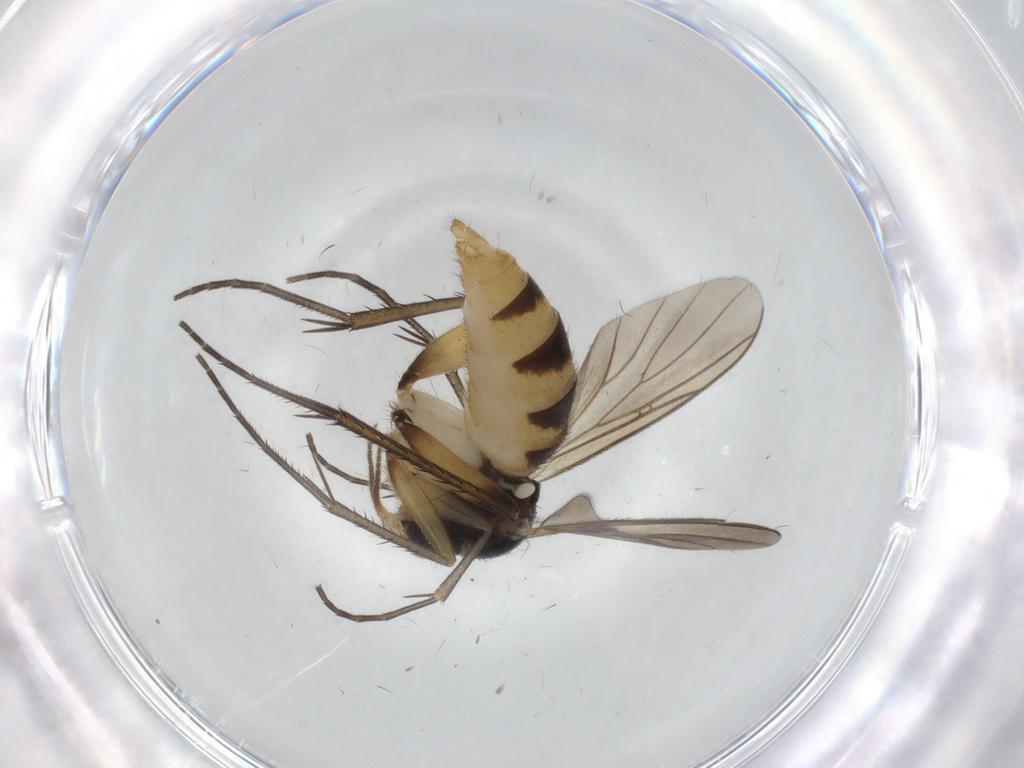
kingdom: Animalia
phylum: Arthropoda
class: Insecta
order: Diptera
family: Mycetophilidae
